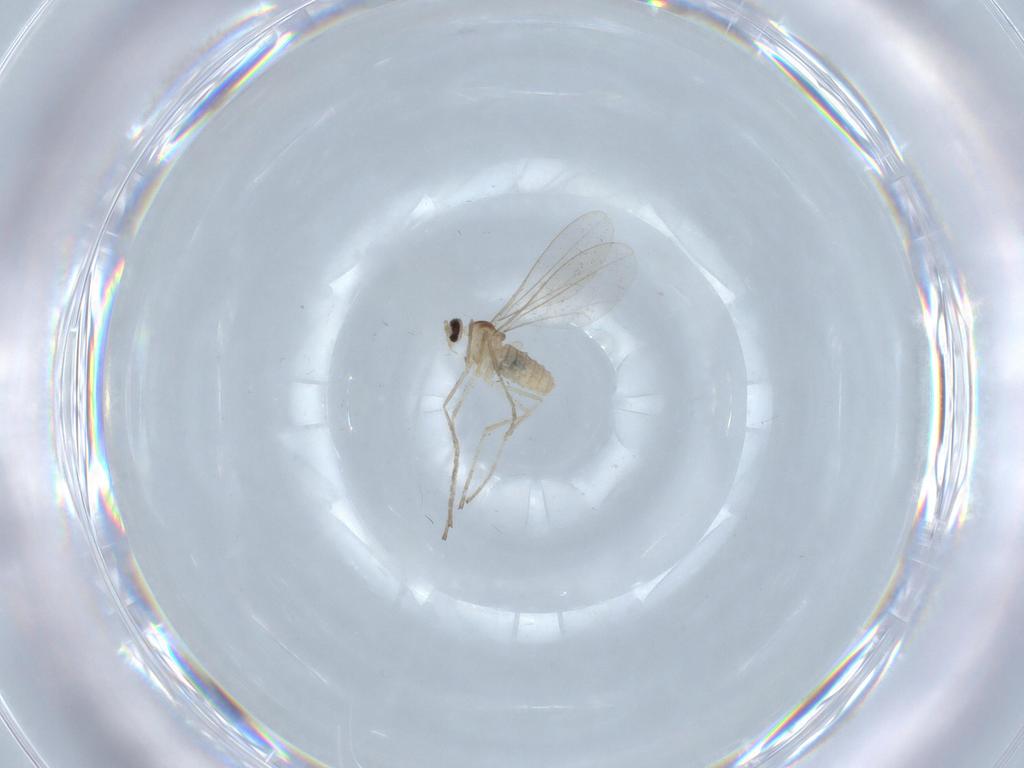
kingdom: Animalia
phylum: Arthropoda
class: Insecta
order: Diptera
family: Cecidomyiidae
